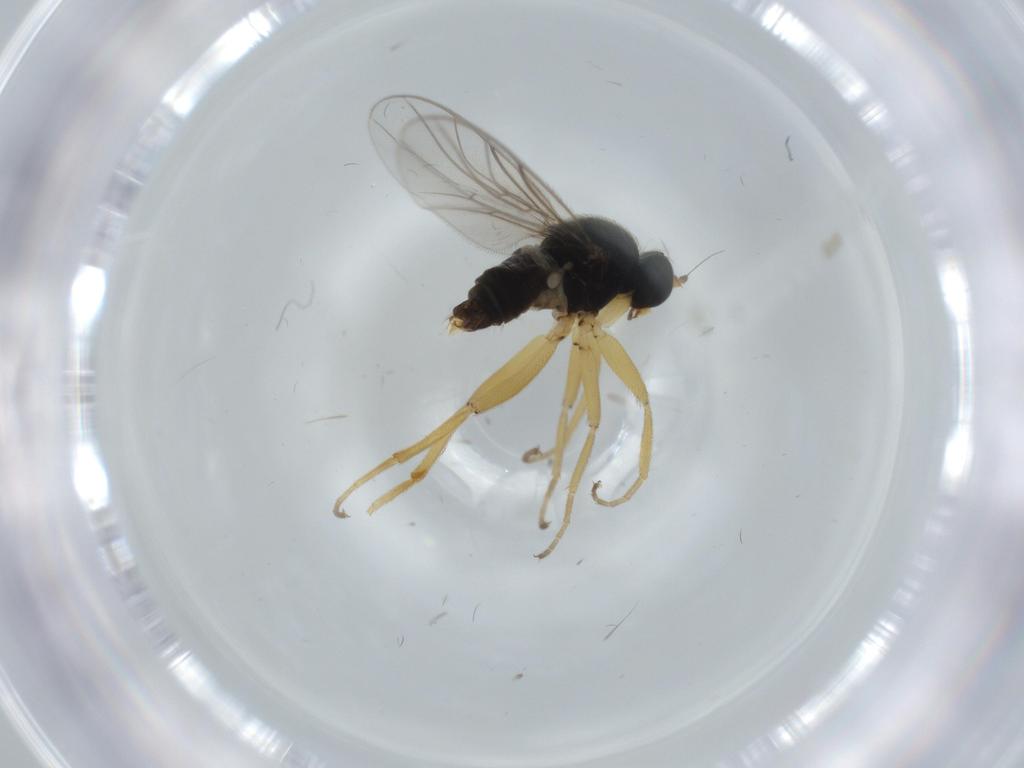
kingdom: Animalia
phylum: Arthropoda
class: Insecta
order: Diptera
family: Hybotidae
